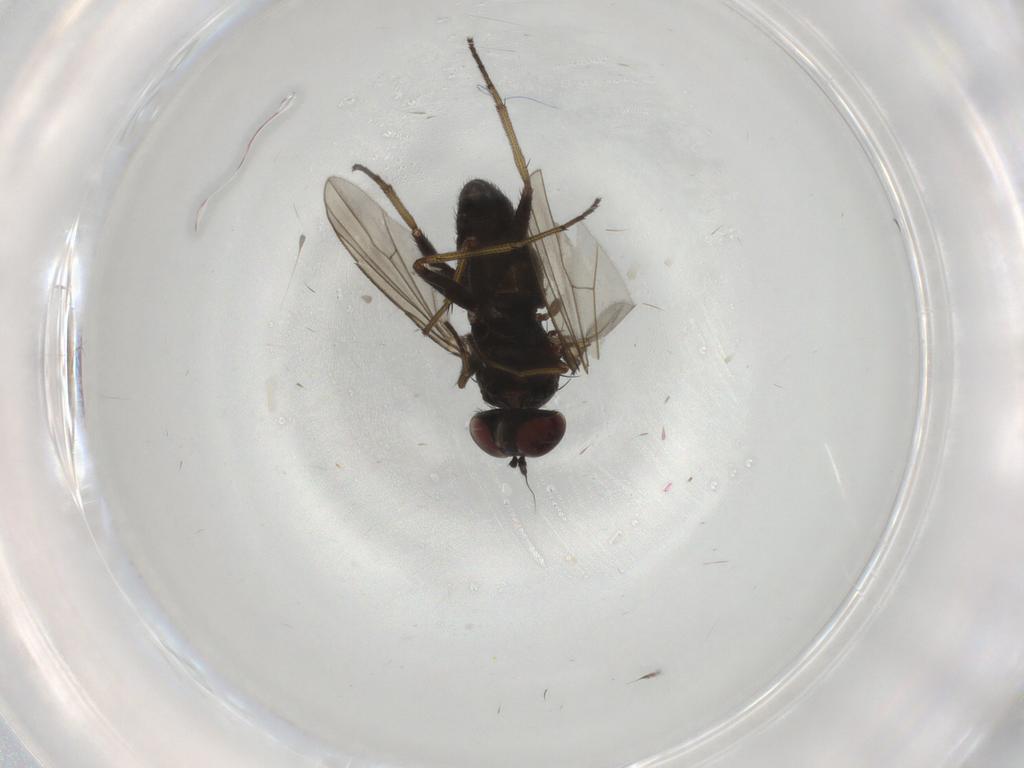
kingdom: Animalia
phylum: Arthropoda
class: Insecta
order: Diptera
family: Dolichopodidae
